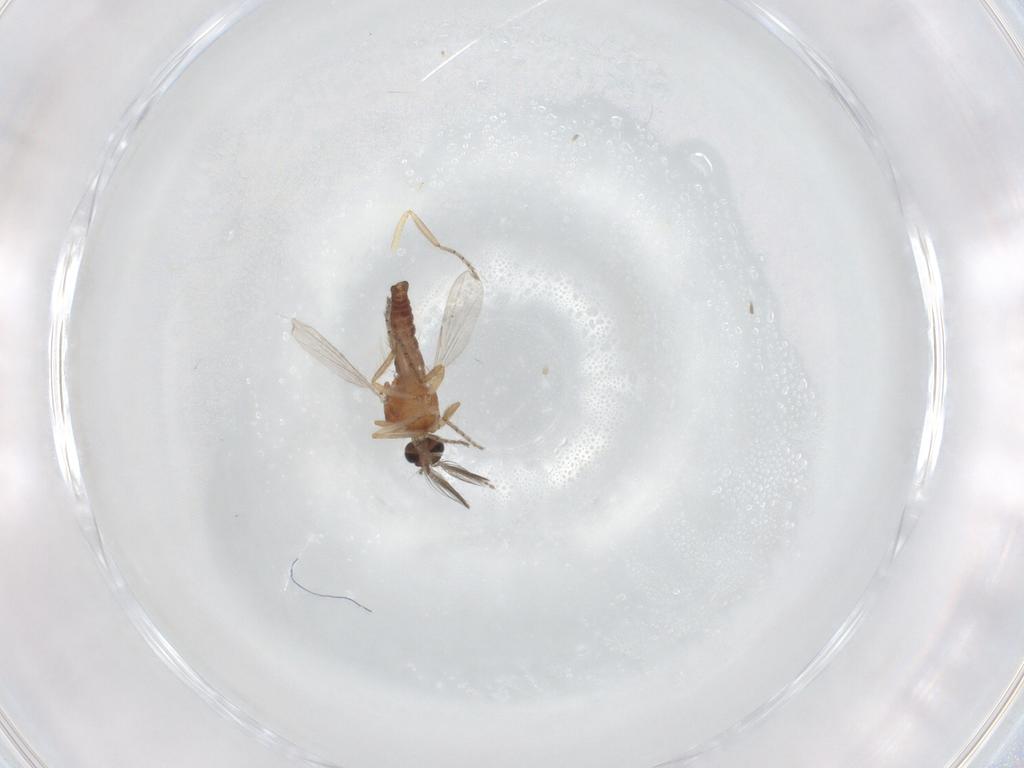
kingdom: Animalia
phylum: Arthropoda
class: Insecta
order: Diptera
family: Ceratopogonidae
